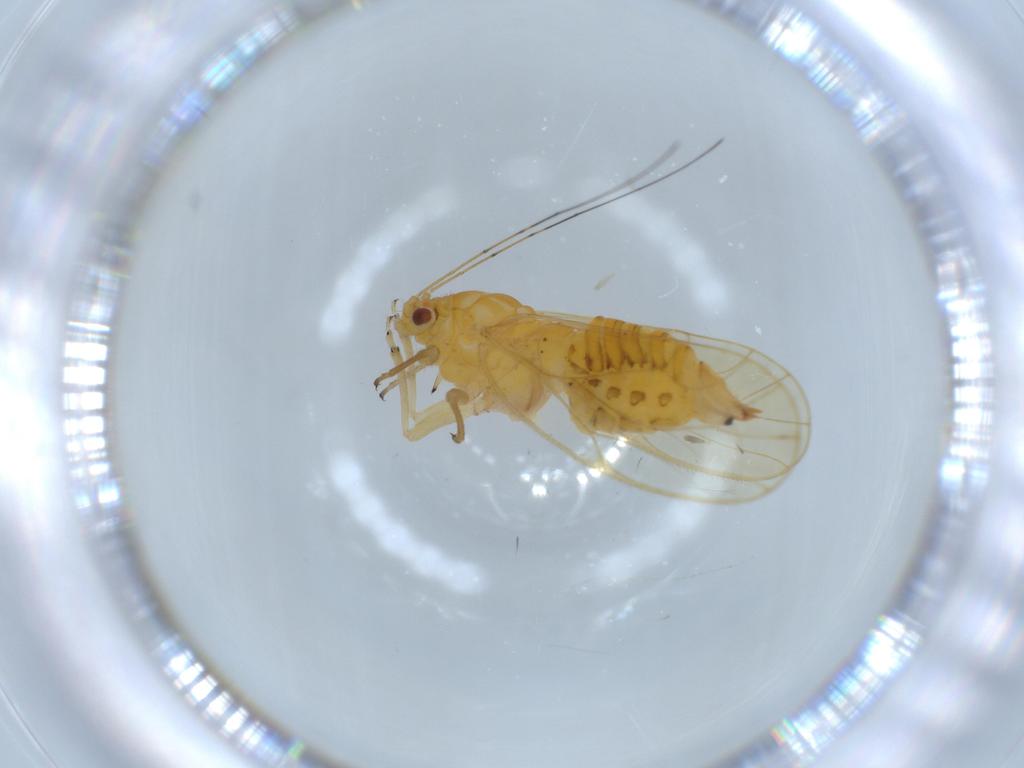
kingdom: Animalia
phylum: Arthropoda
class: Insecta
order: Hemiptera
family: Psyllidae
